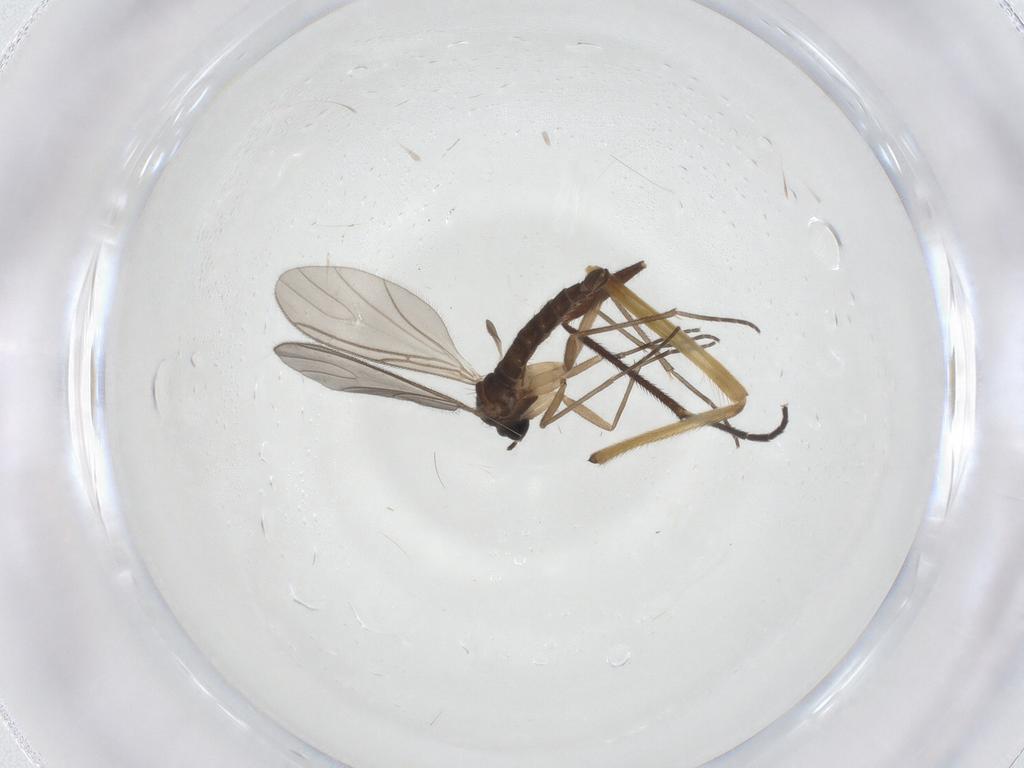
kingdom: Animalia
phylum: Arthropoda
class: Insecta
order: Diptera
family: Sciaridae
